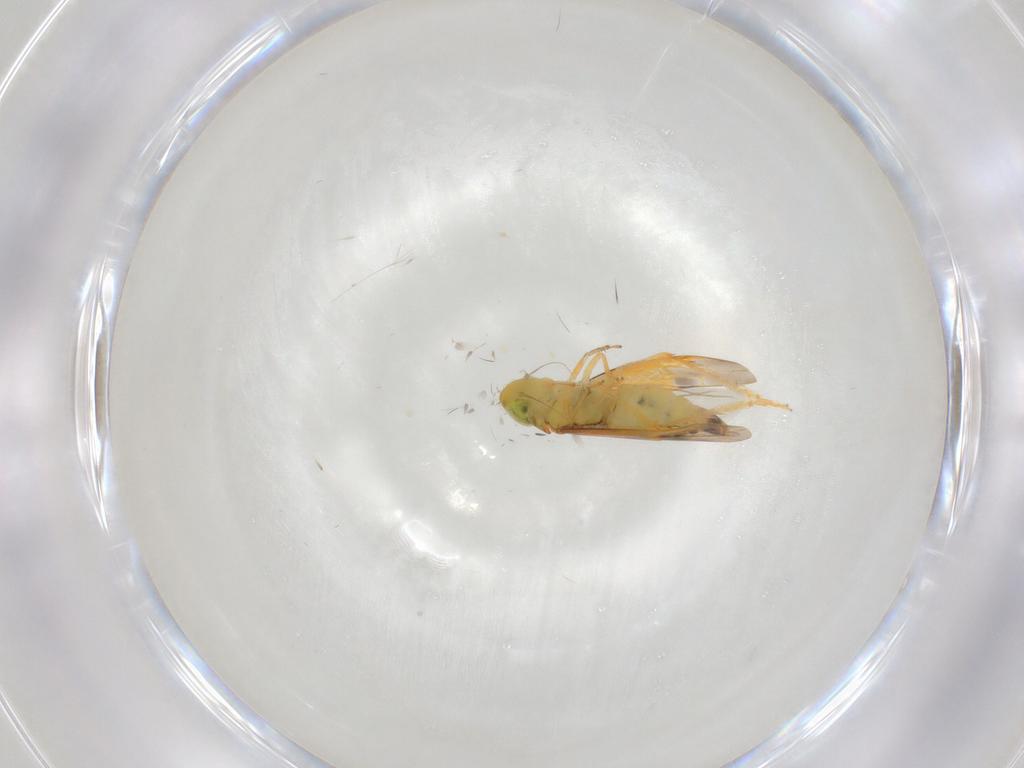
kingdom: Animalia
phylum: Arthropoda
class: Insecta
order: Hemiptera
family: Cicadellidae
